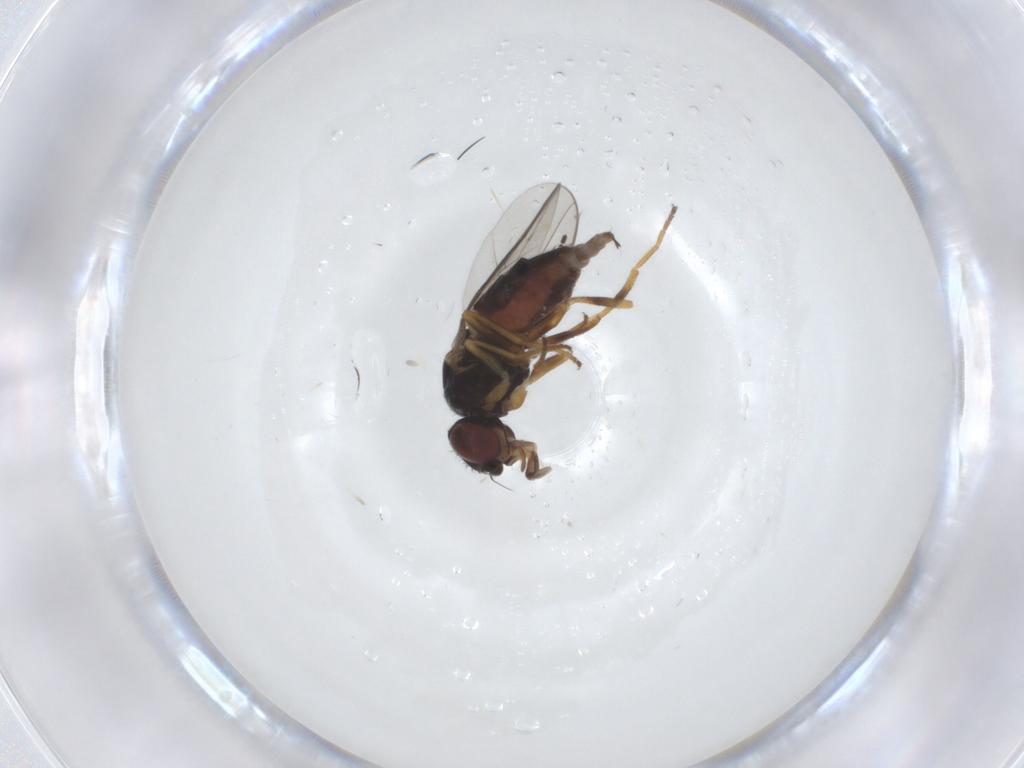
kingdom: Animalia
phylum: Arthropoda
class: Insecta
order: Diptera
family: Chloropidae
